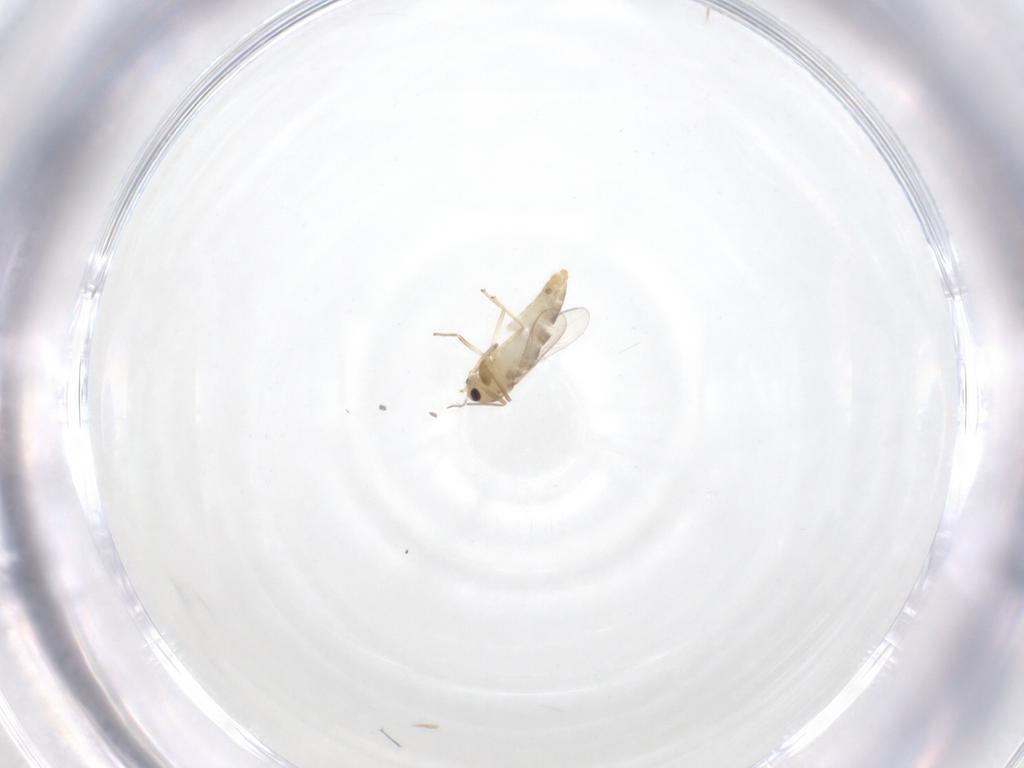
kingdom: Animalia
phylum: Arthropoda
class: Insecta
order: Diptera
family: Chironomidae
